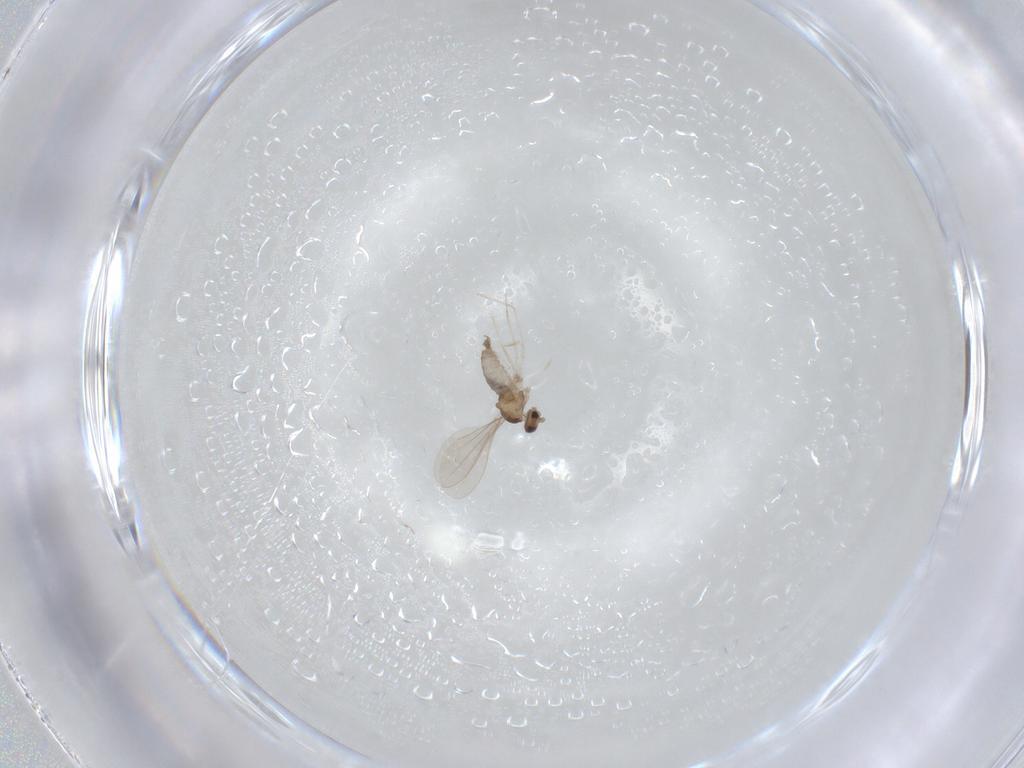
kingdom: Animalia
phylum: Arthropoda
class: Insecta
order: Diptera
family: Cecidomyiidae
